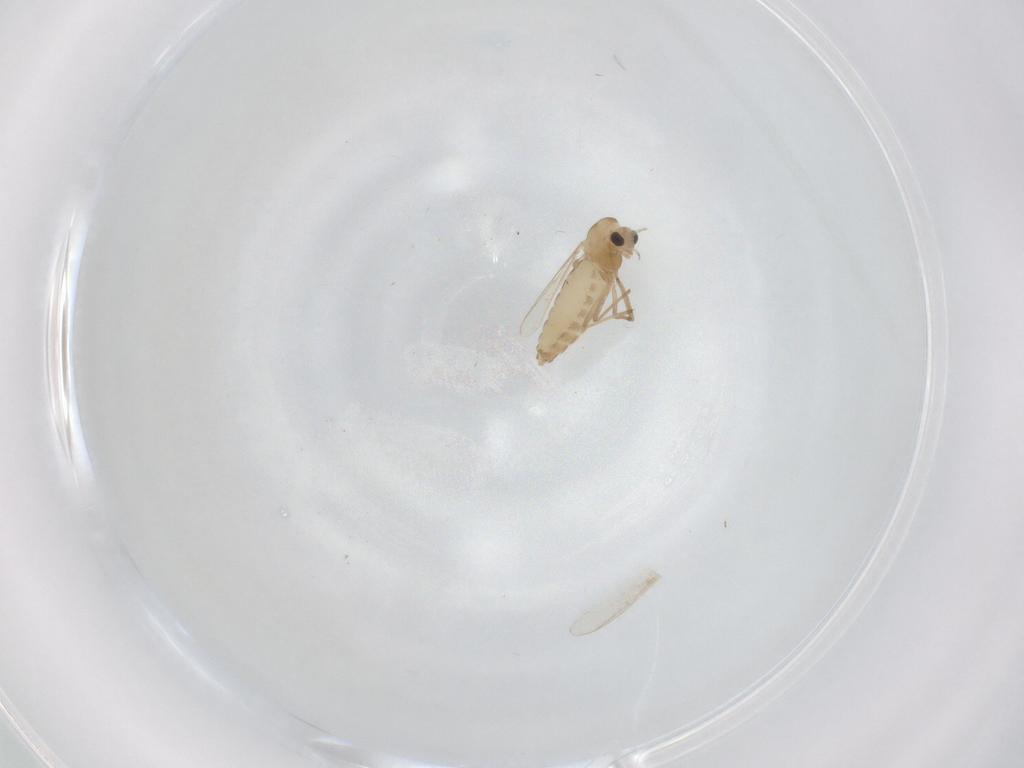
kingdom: Animalia
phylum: Arthropoda
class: Insecta
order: Diptera
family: Chironomidae
